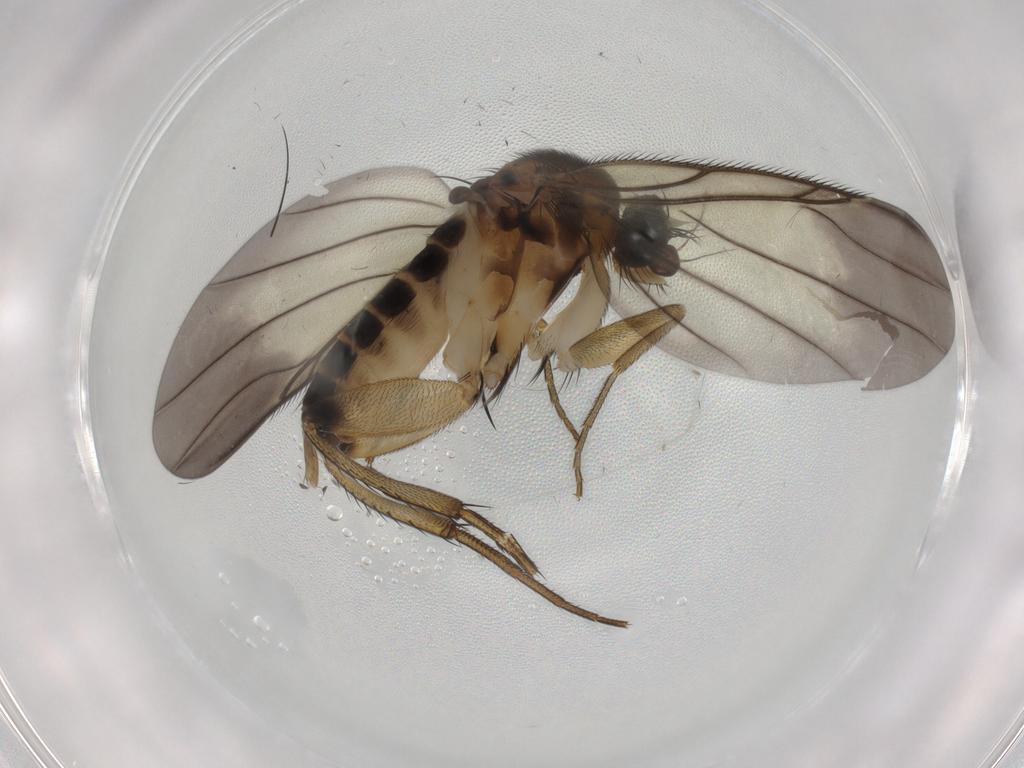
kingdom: Animalia
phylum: Arthropoda
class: Insecta
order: Diptera
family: Phoridae
